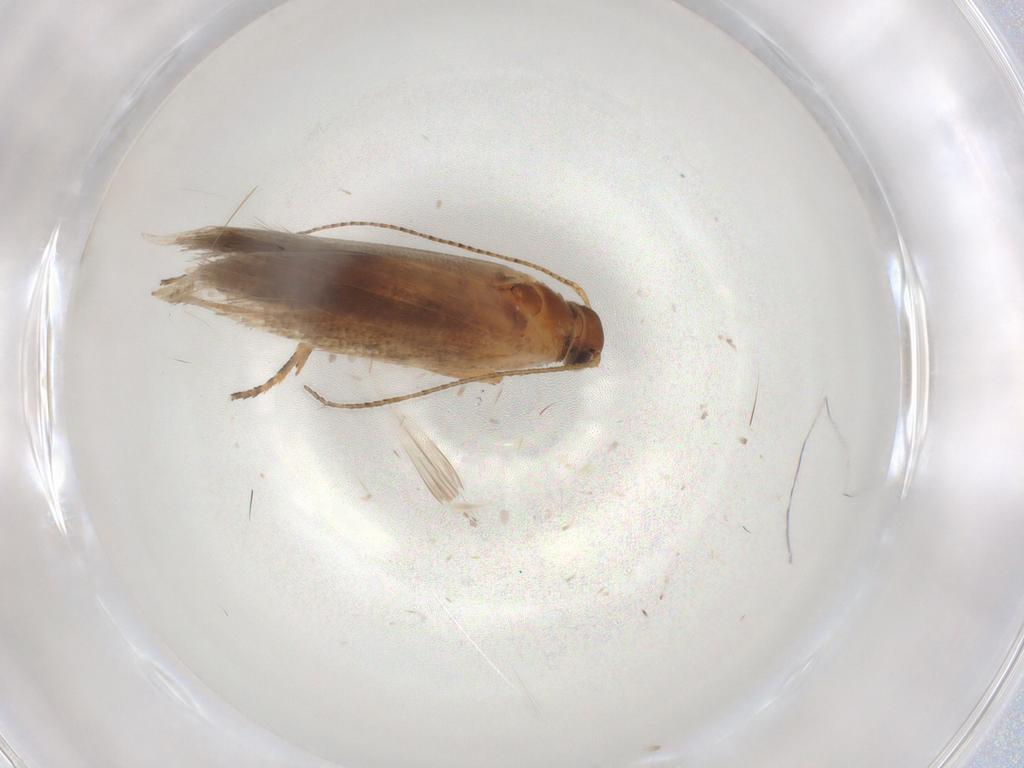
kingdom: Animalia
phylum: Arthropoda
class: Insecta
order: Lepidoptera
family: Gelechiidae
